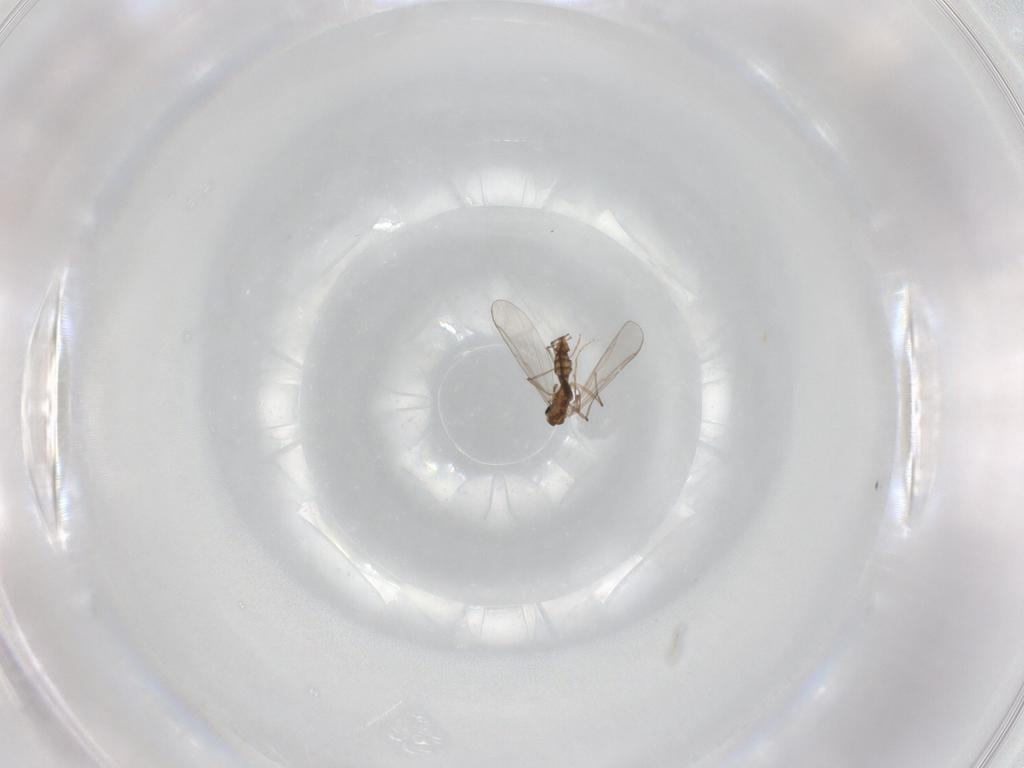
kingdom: Animalia
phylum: Arthropoda
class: Insecta
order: Diptera
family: Chironomidae
